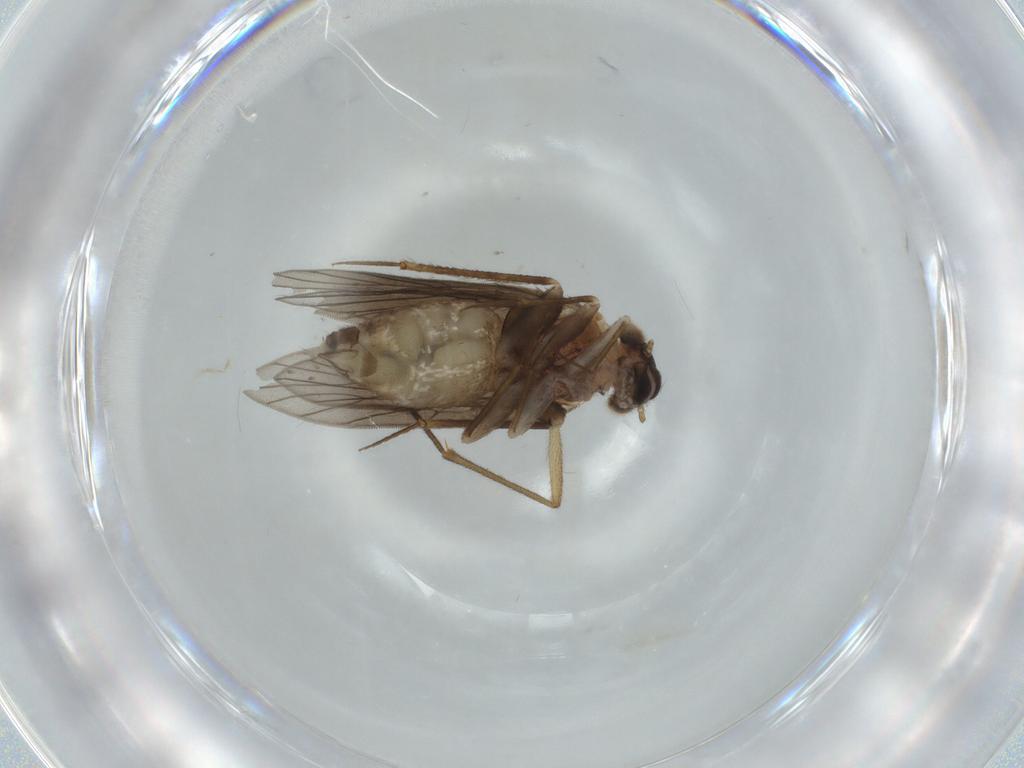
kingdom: Animalia
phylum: Arthropoda
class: Insecta
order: Psocodea
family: Lepidopsocidae
